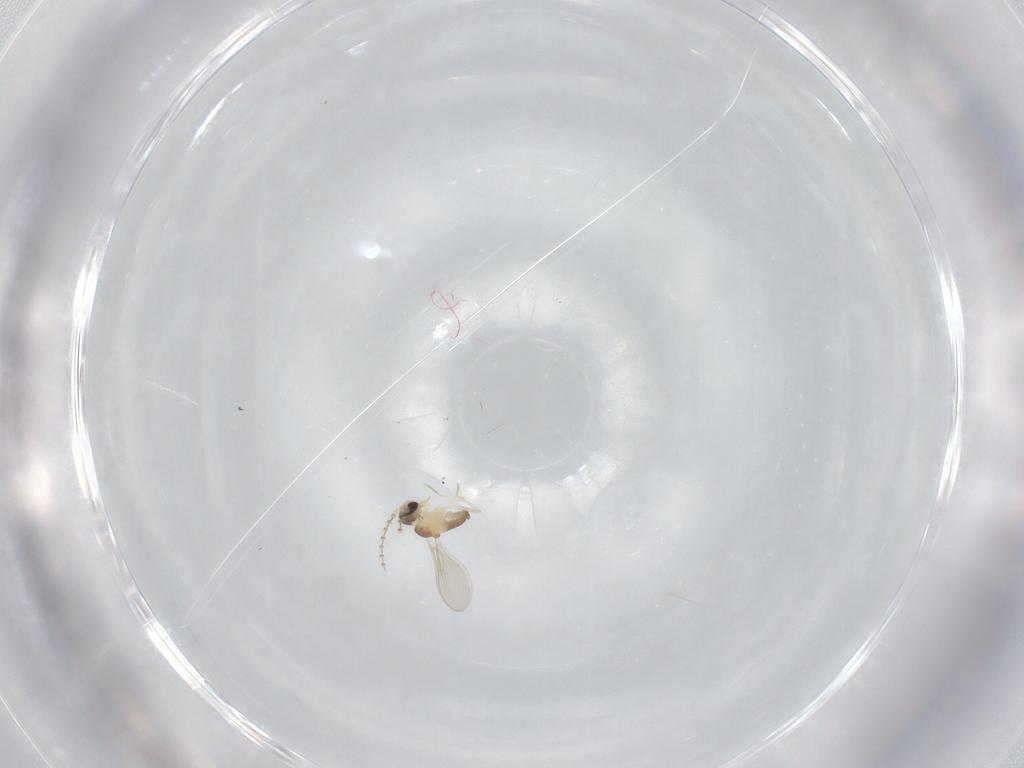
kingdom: Animalia
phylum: Arthropoda
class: Insecta
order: Diptera
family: Cecidomyiidae
